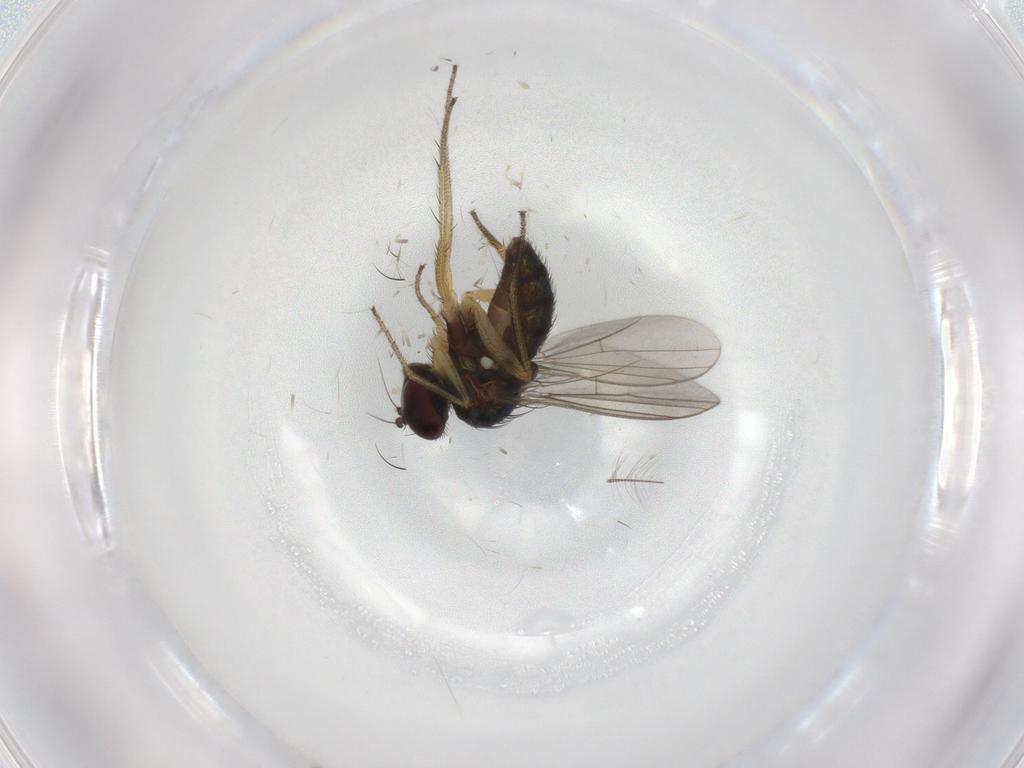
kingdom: Animalia
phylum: Arthropoda
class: Insecta
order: Diptera
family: Dolichopodidae
